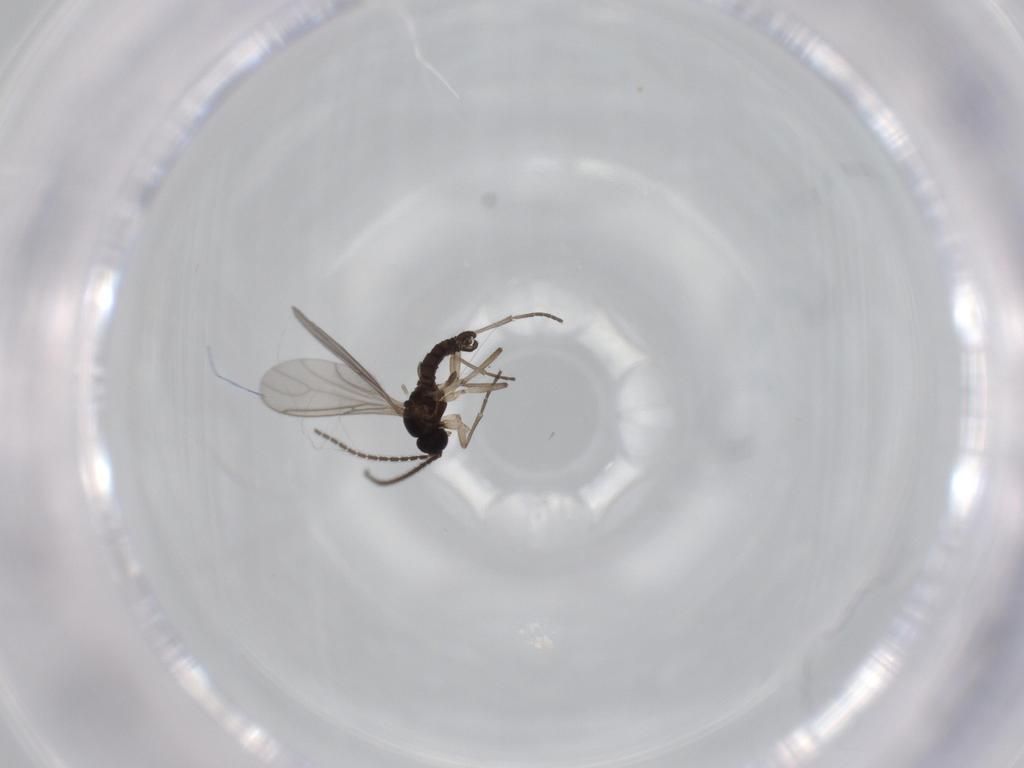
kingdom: Animalia
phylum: Arthropoda
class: Insecta
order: Diptera
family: Sciaridae
